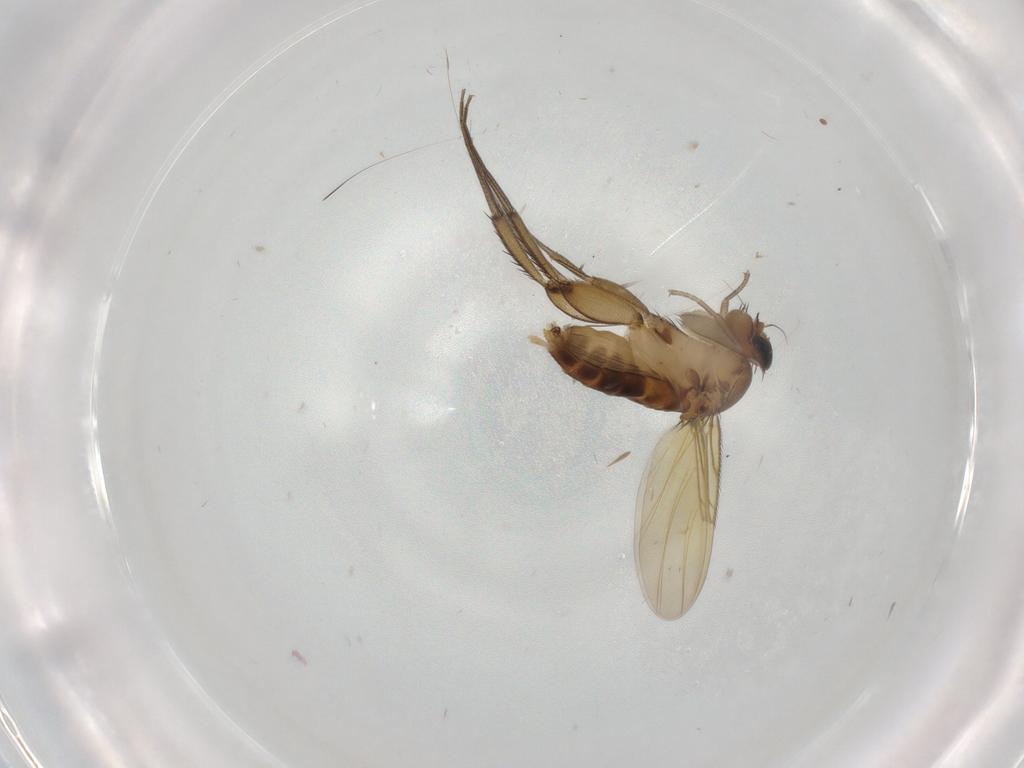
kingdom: Animalia
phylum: Arthropoda
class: Insecta
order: Diptera
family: Phoridae
